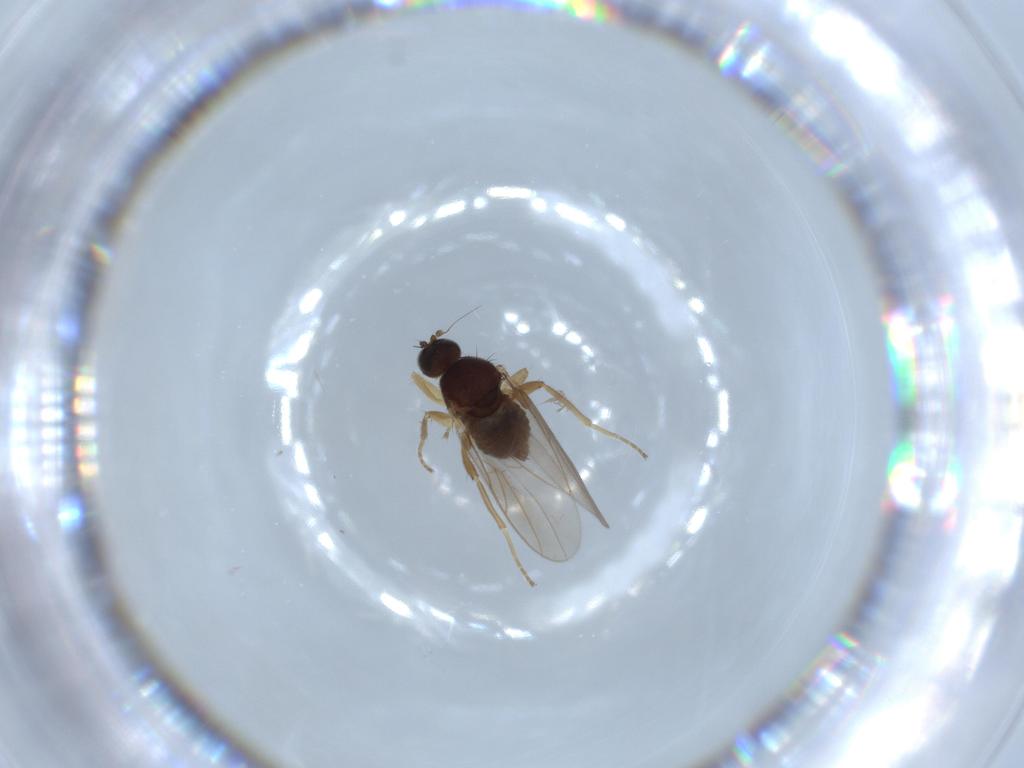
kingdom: Animalia
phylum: Arthropoda
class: Insecta
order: Diptera
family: Hybotidae
